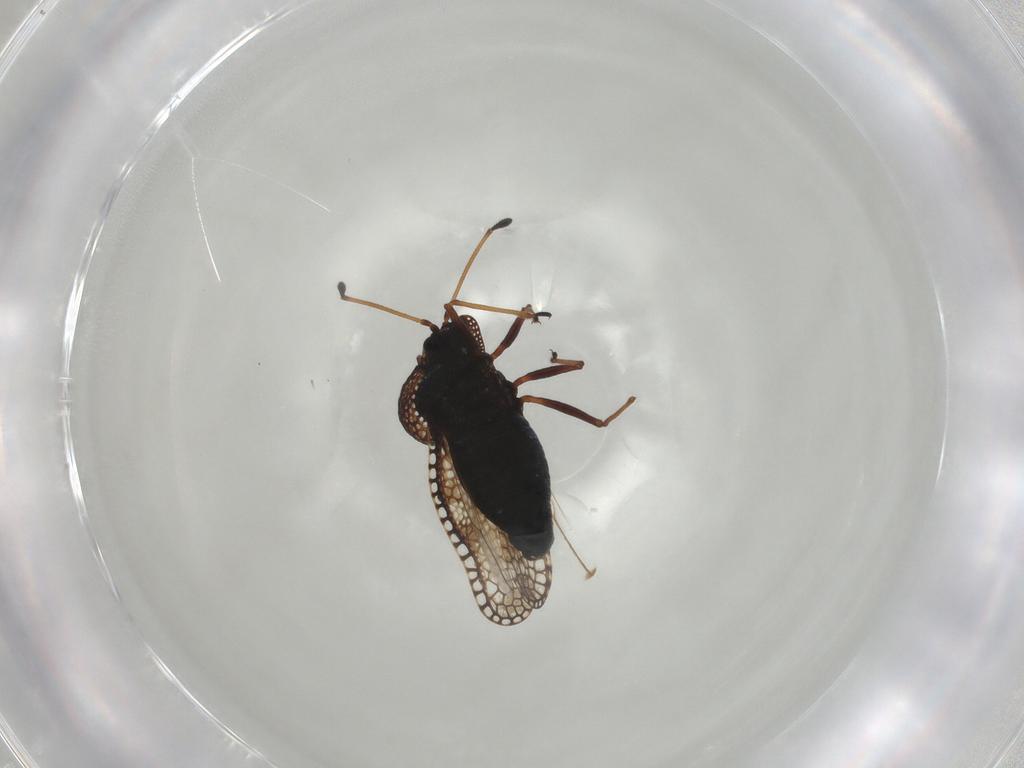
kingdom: Animalia
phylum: Arthropoda
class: Insecta
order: Hemiptera
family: Tingidae
